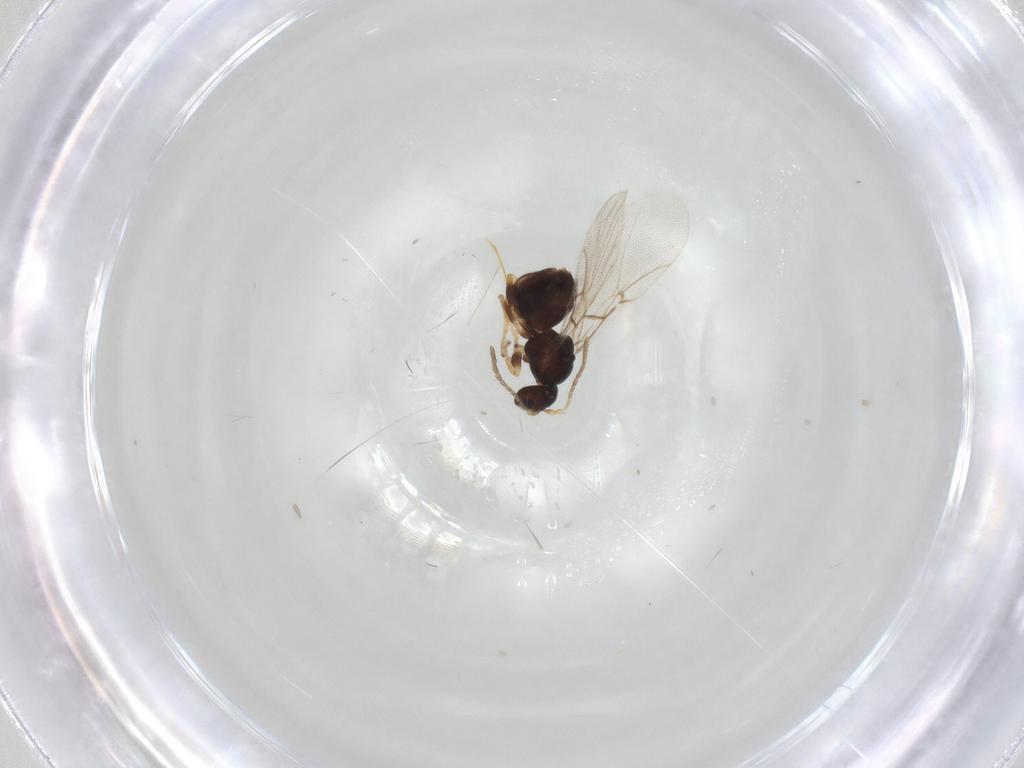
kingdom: Animalia
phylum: Arthropoda
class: Insecta
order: Hymenoptera
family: Cynipidae
